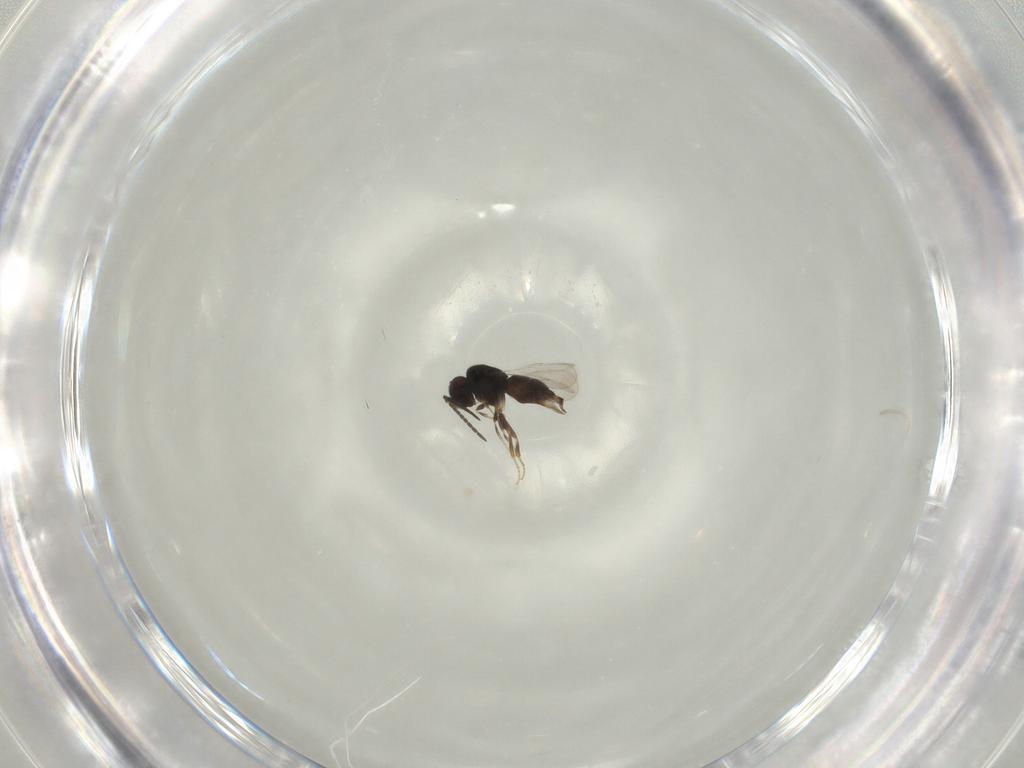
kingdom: Animalia
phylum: Arthropoda
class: Insecta
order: Hymenoptera
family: Ceraphronidae
